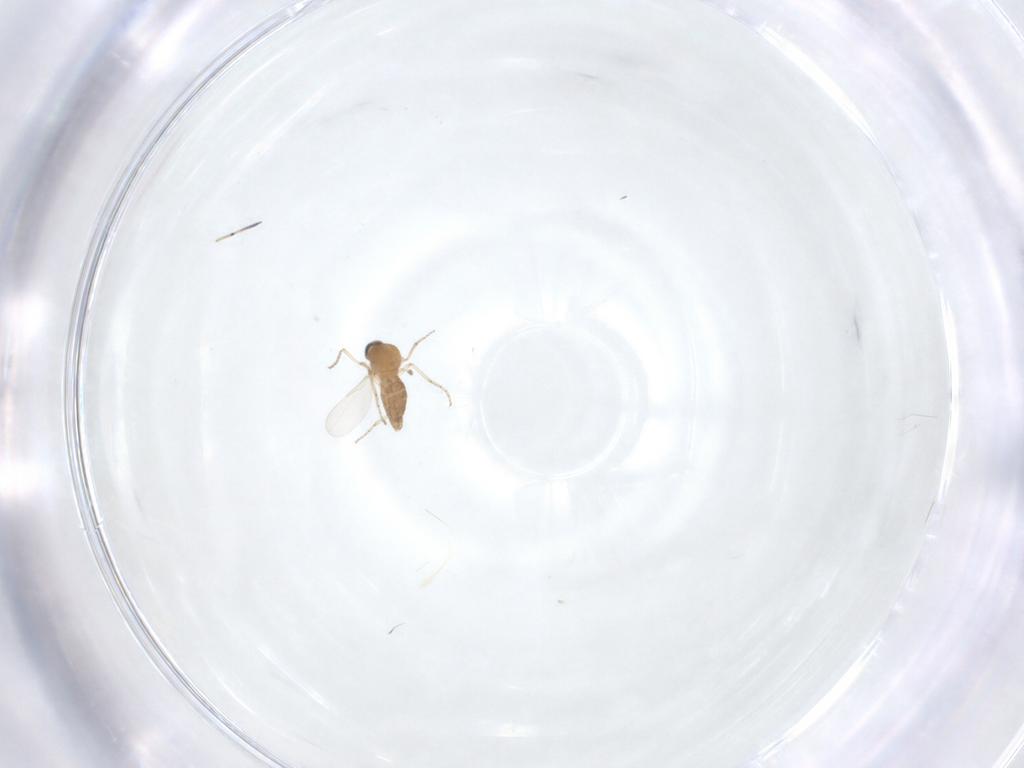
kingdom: Animalia
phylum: Arthropoda
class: Insecta
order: Diptera
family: Ceratopogonidae
